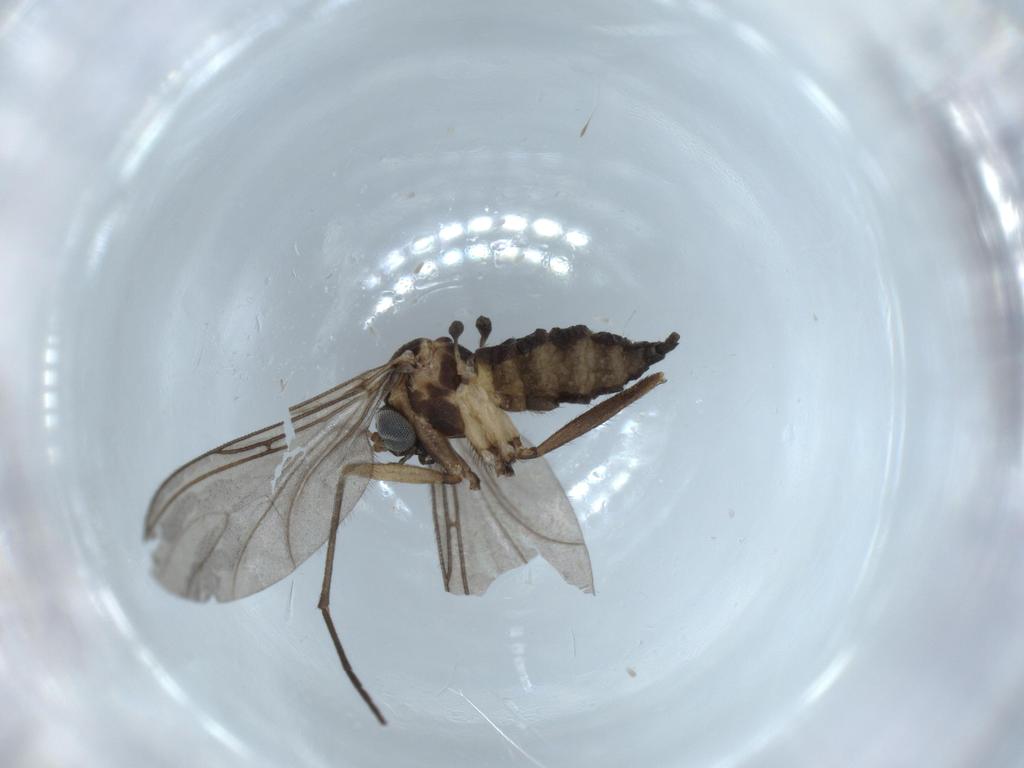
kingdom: Animalia
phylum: Arthropoda
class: Insecta
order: Diptera
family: Sciaridae
